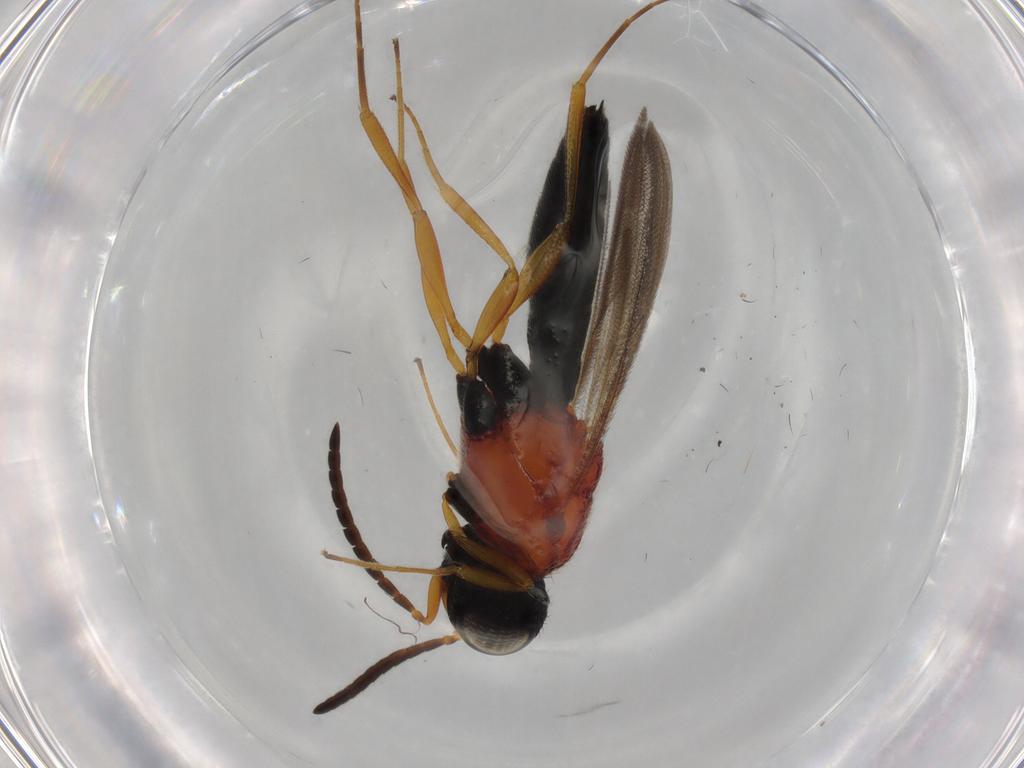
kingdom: Animalia
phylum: Arthropoda
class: Insecta
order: Hymenoptera
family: Scelionidae
